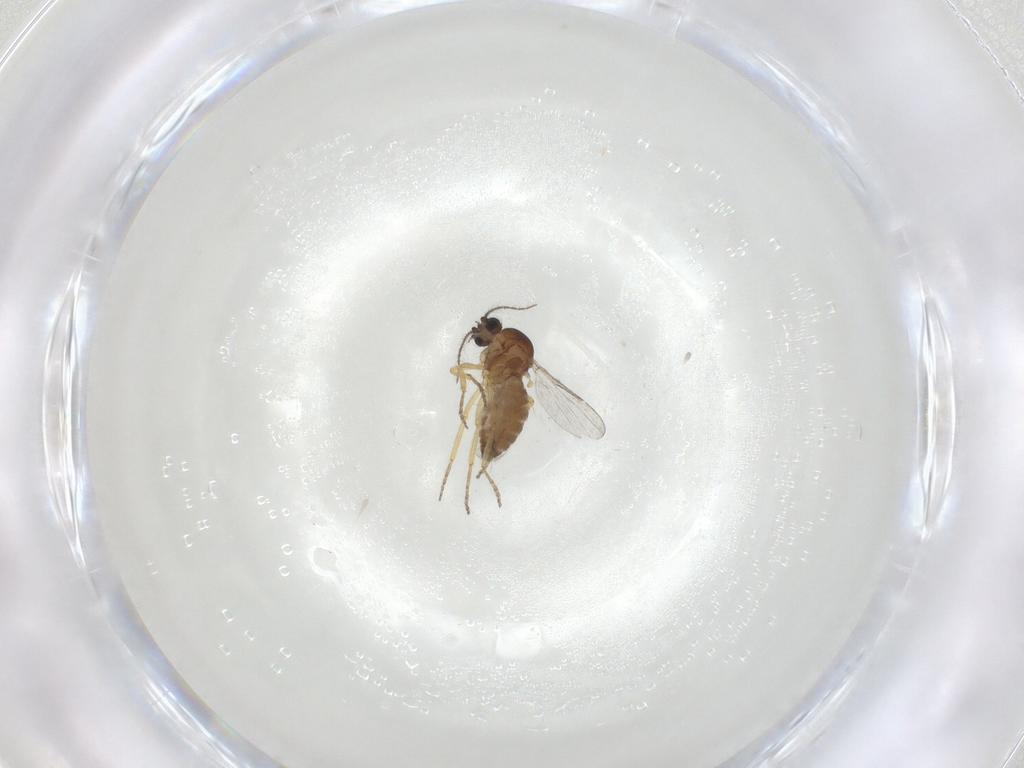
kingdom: Animalia
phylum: Arthropoda
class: Insecta
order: Diptera
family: Ceratopogonidae
